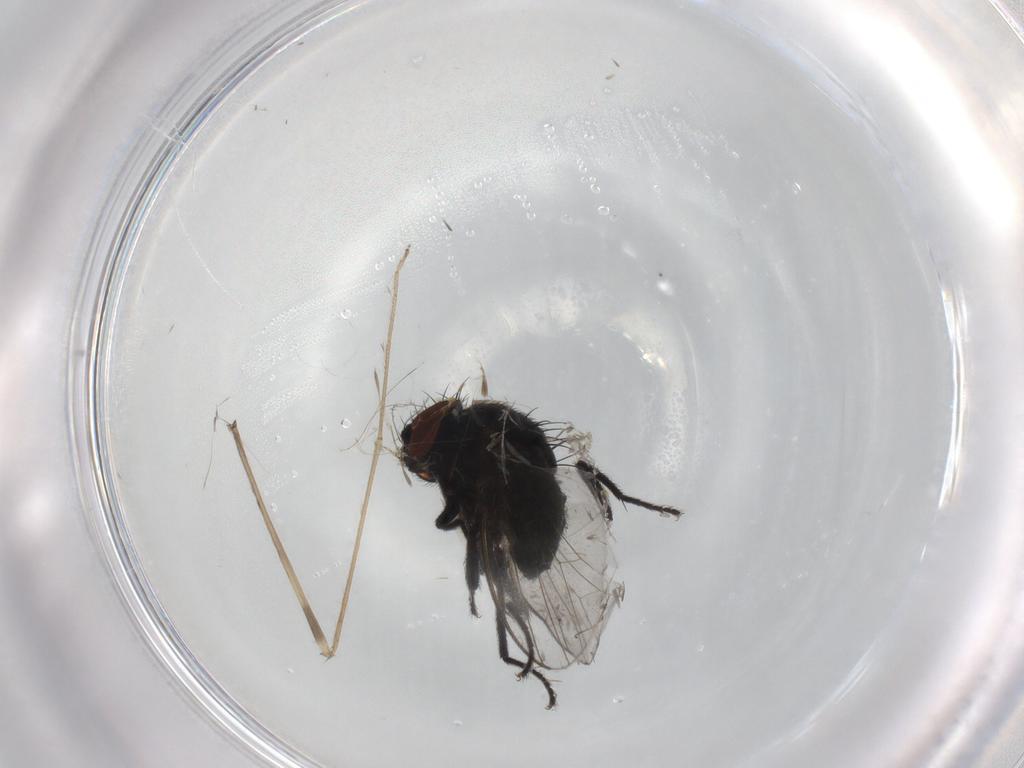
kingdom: Animalia
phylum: Arthropoda
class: Insecta
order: Diptera
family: Milichiidae
